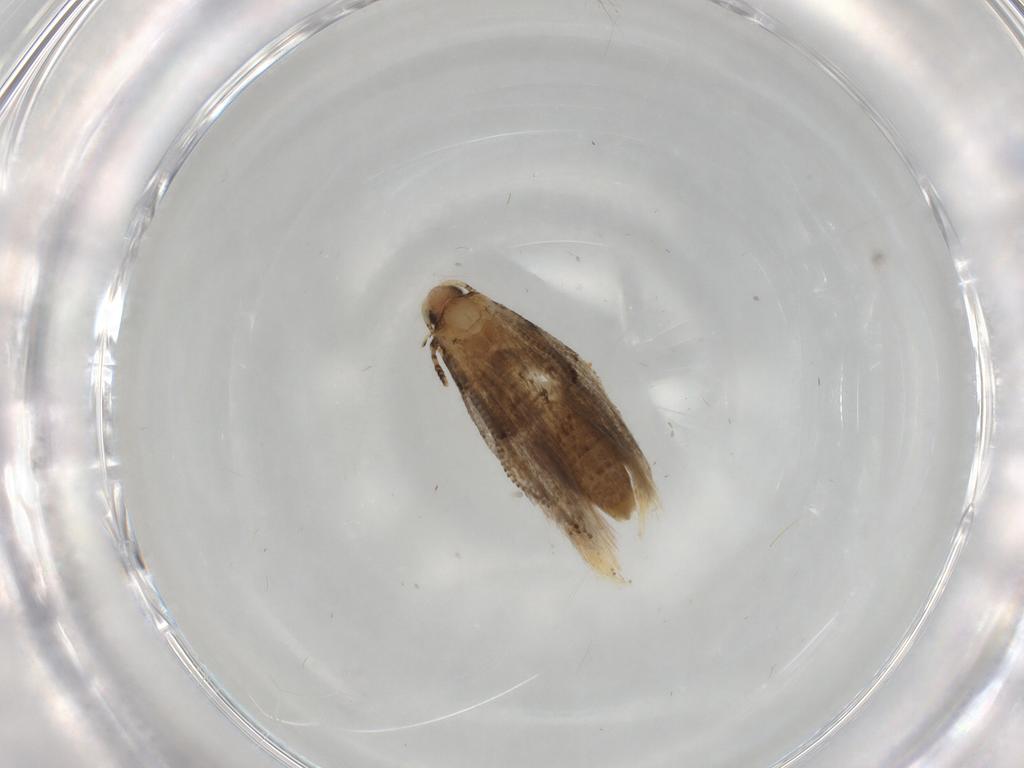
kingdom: Animalia
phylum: Arthropoda
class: Insecta
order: Lepidoptera
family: Tineidae
